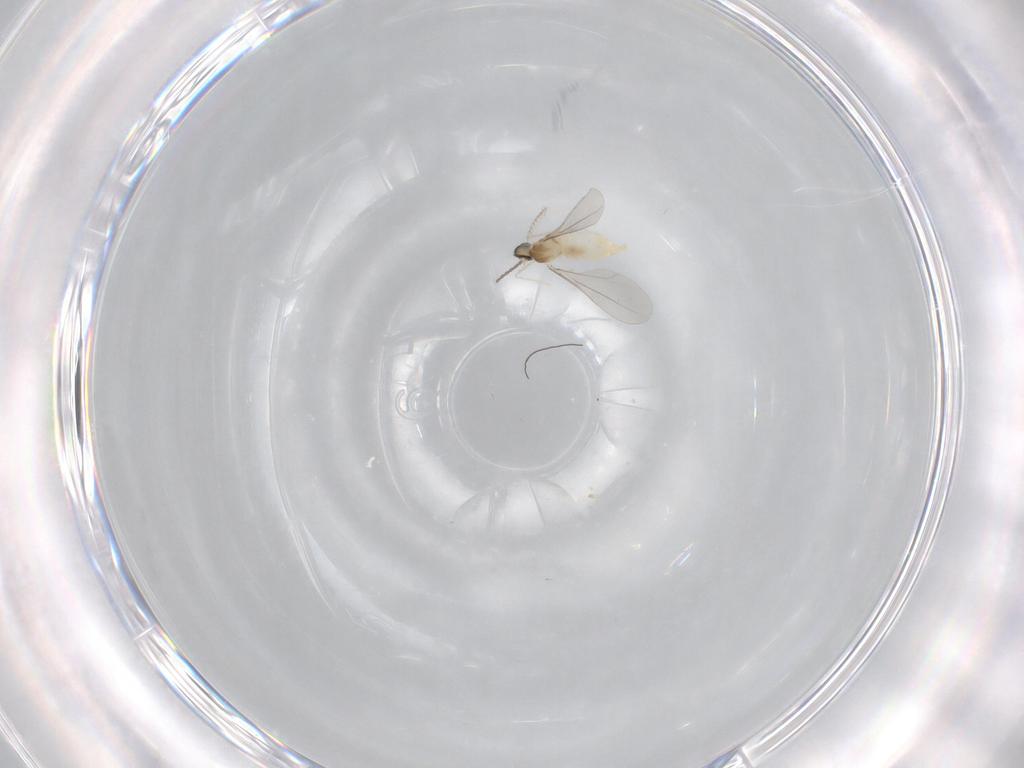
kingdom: Animalia
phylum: Arthropoda
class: Insecta
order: Diptera
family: Cecidomyiidae
